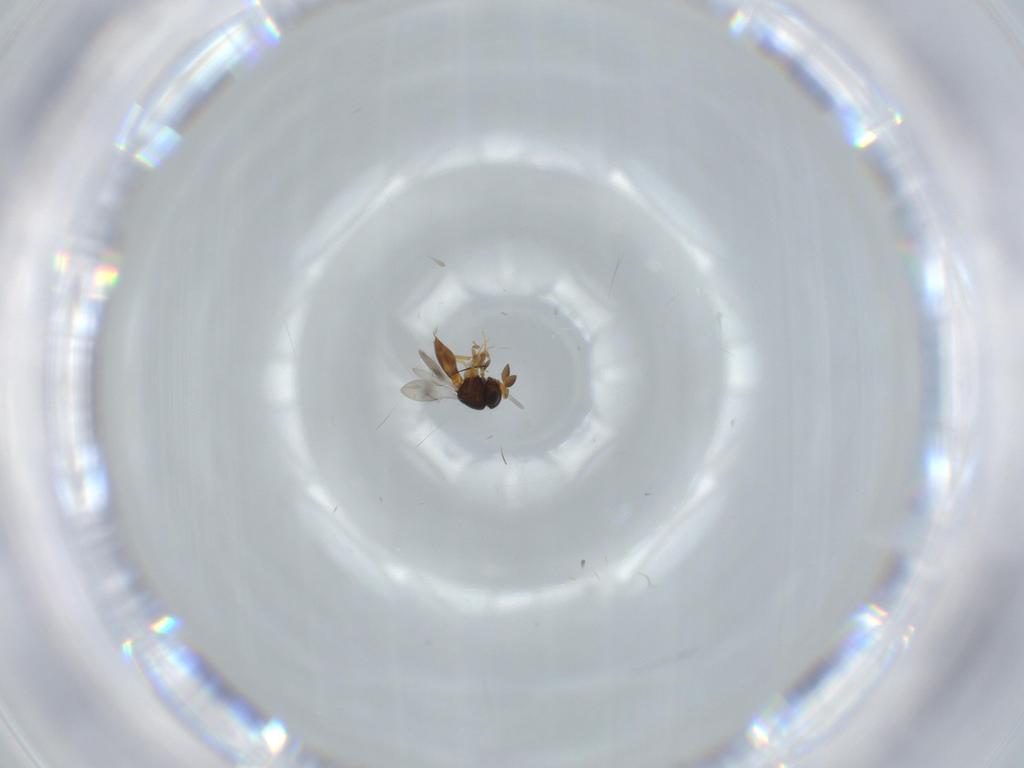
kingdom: Animalia
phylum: Arthropoda
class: Insecta
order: Hymenoptera
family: Scelionidae
